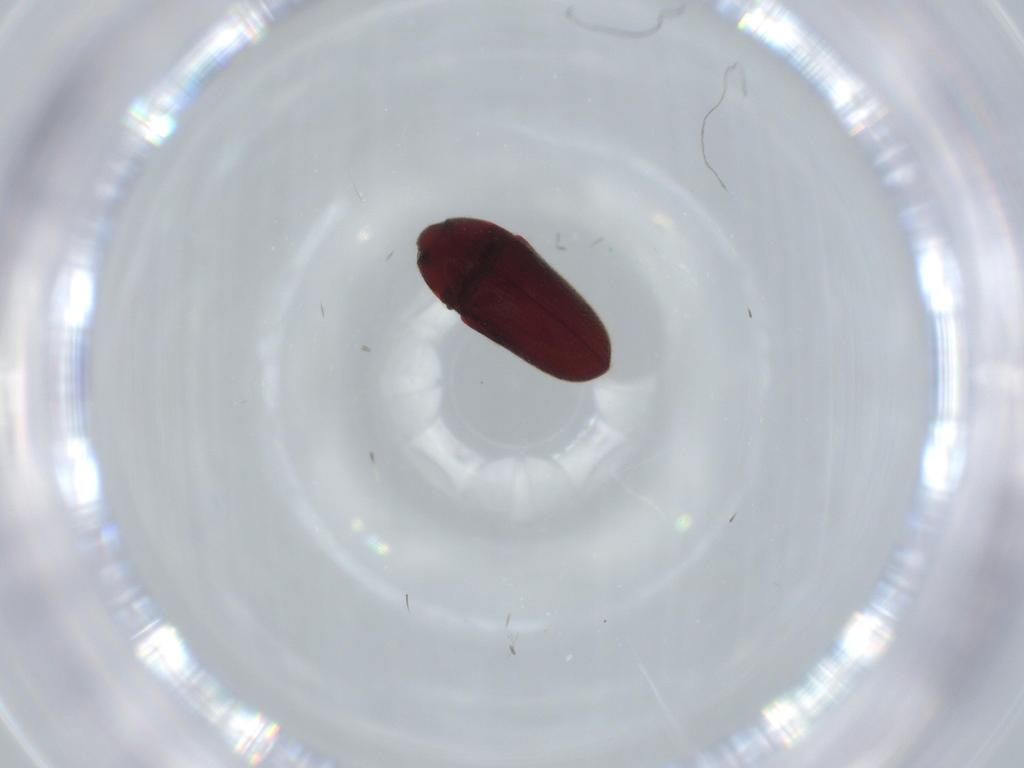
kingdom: Animalia
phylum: Arthropoda
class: Insecta
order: Coleoptera
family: Throscidae
